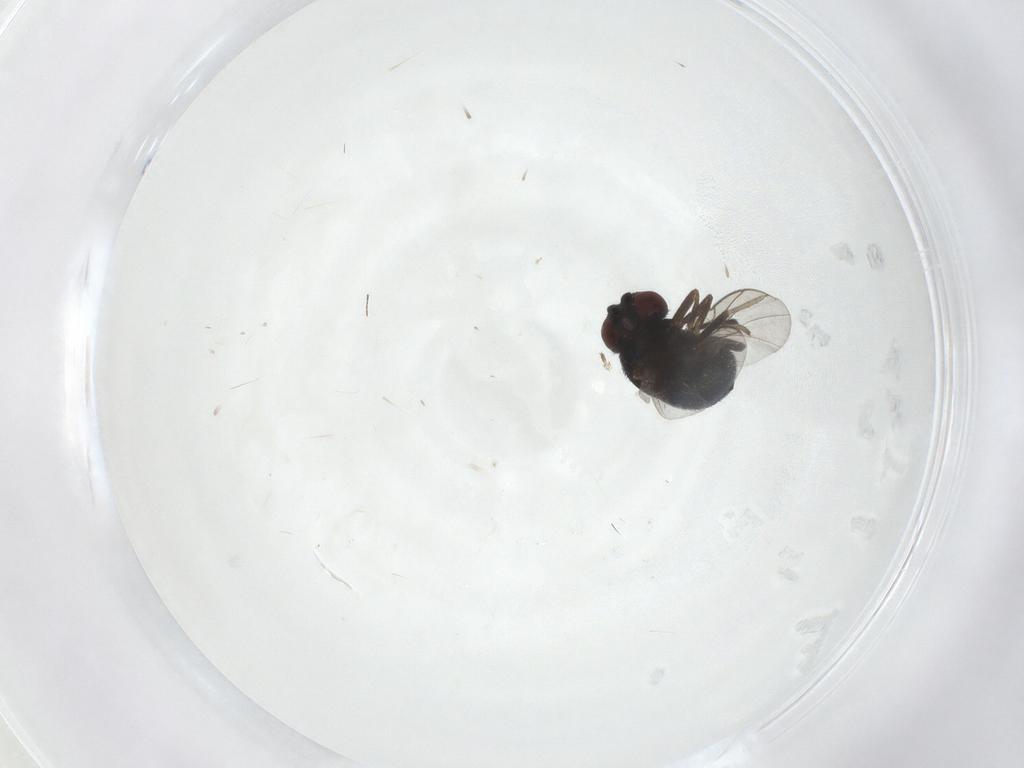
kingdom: Animalia
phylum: Arthropoda
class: Insecta
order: Diptera
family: Cryptochetidae
